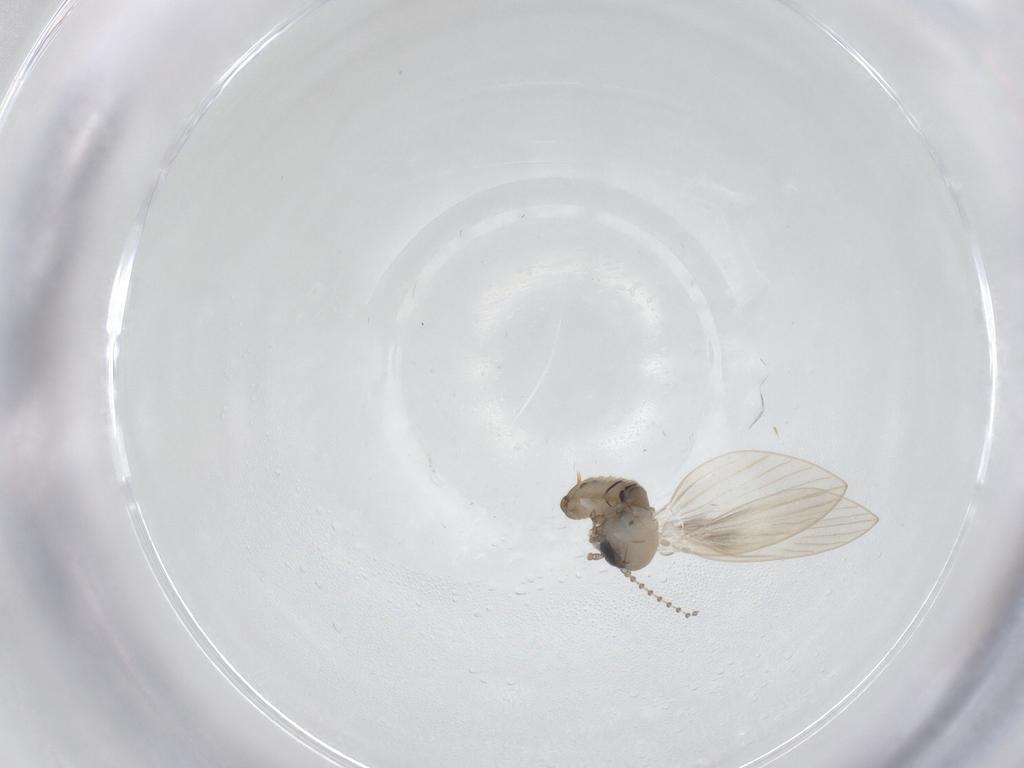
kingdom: Animalia
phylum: Arthropoda
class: Insecta
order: Diptera
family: Psychodidae
